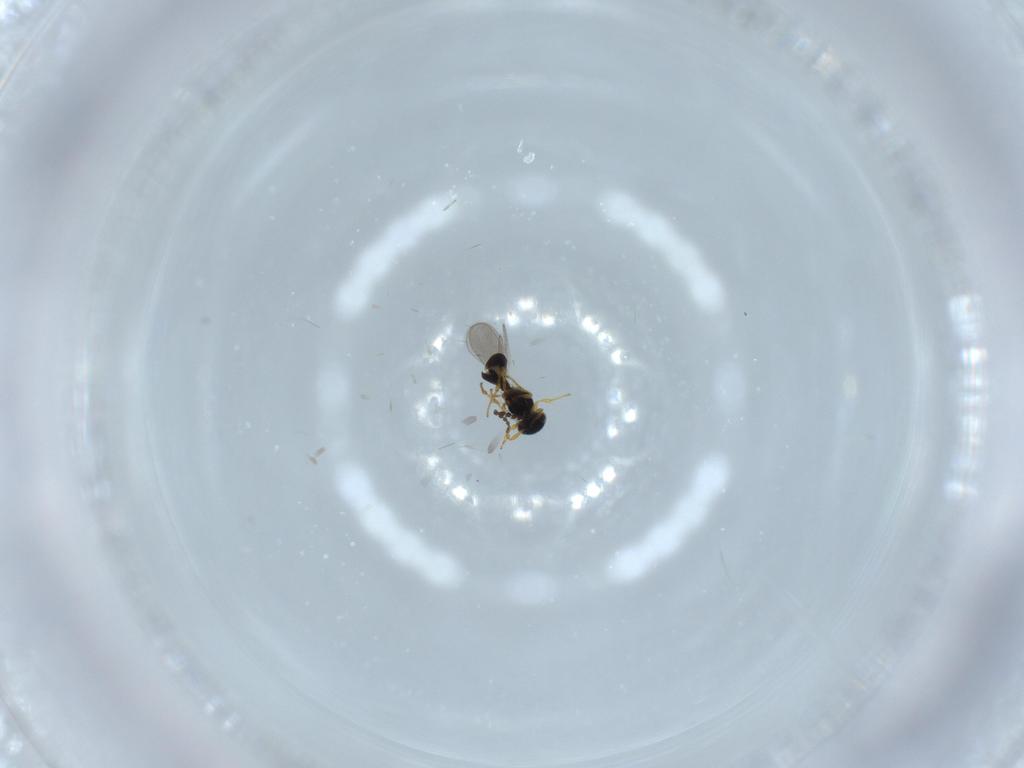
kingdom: Animalia
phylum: Arthropoda
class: Insecta
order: Hymenoptera
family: Platygastridae
